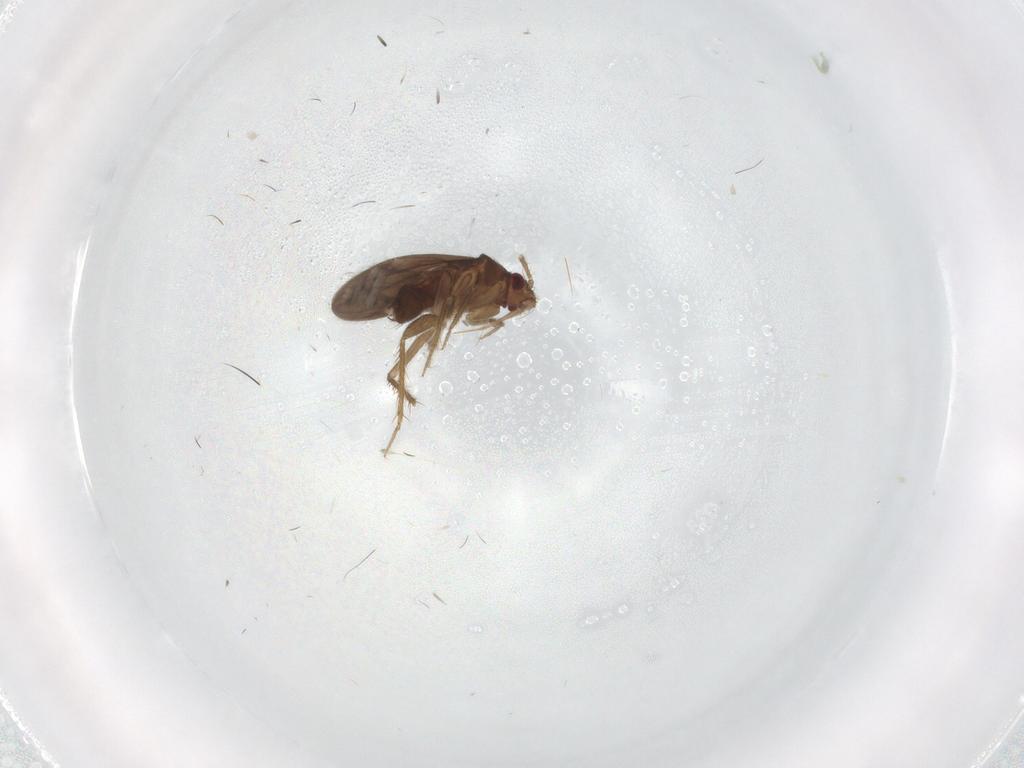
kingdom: Animalia
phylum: Arthropoda
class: Insecta
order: Hemiptera
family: Ceratocombidae
